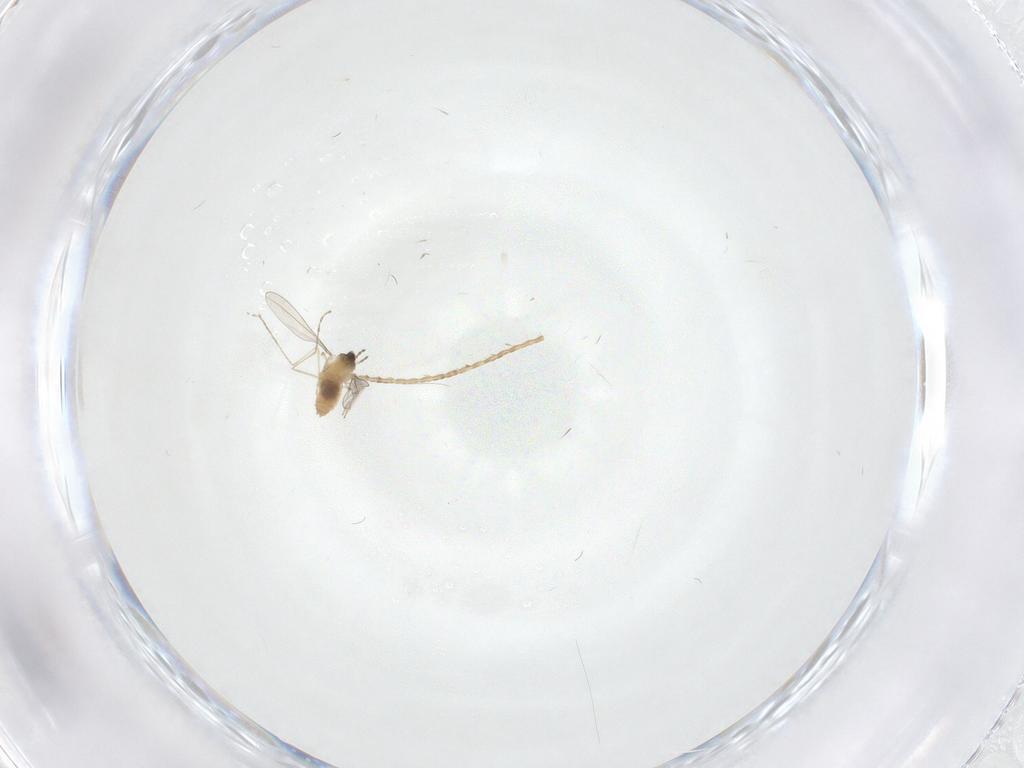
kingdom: Animalia
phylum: Arthropoda
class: Insecta
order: Diptera
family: Cecidomyiidae
